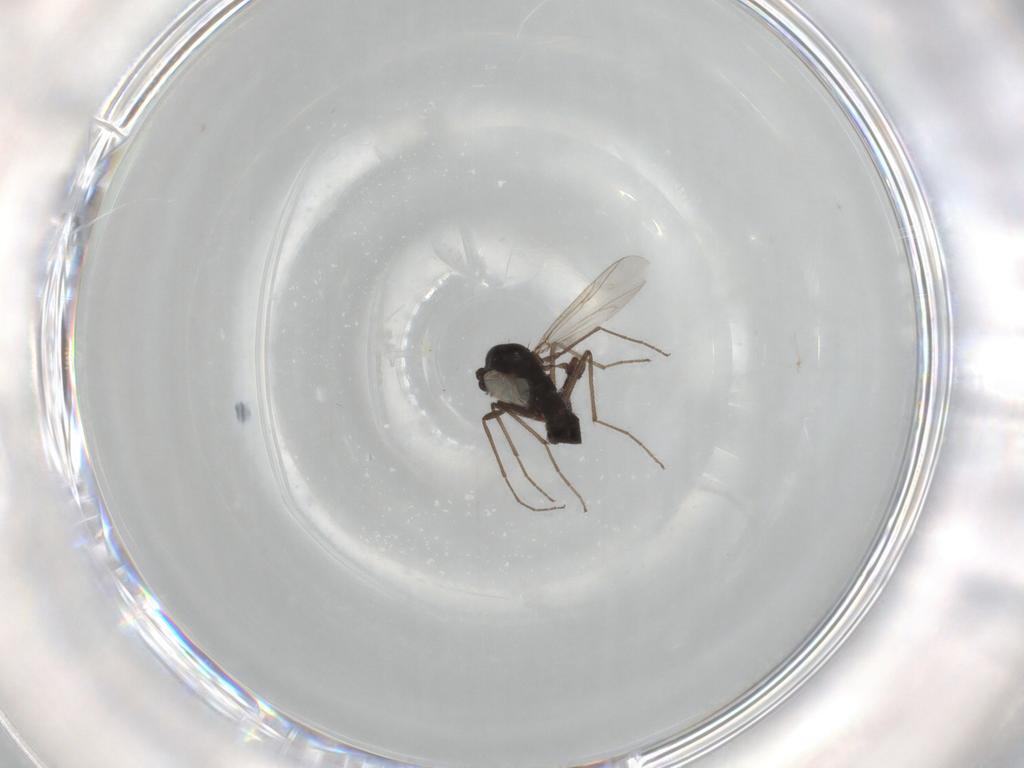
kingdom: Animalia
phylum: Arthropoda
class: Insecta
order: Diptera
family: Chironomidae
